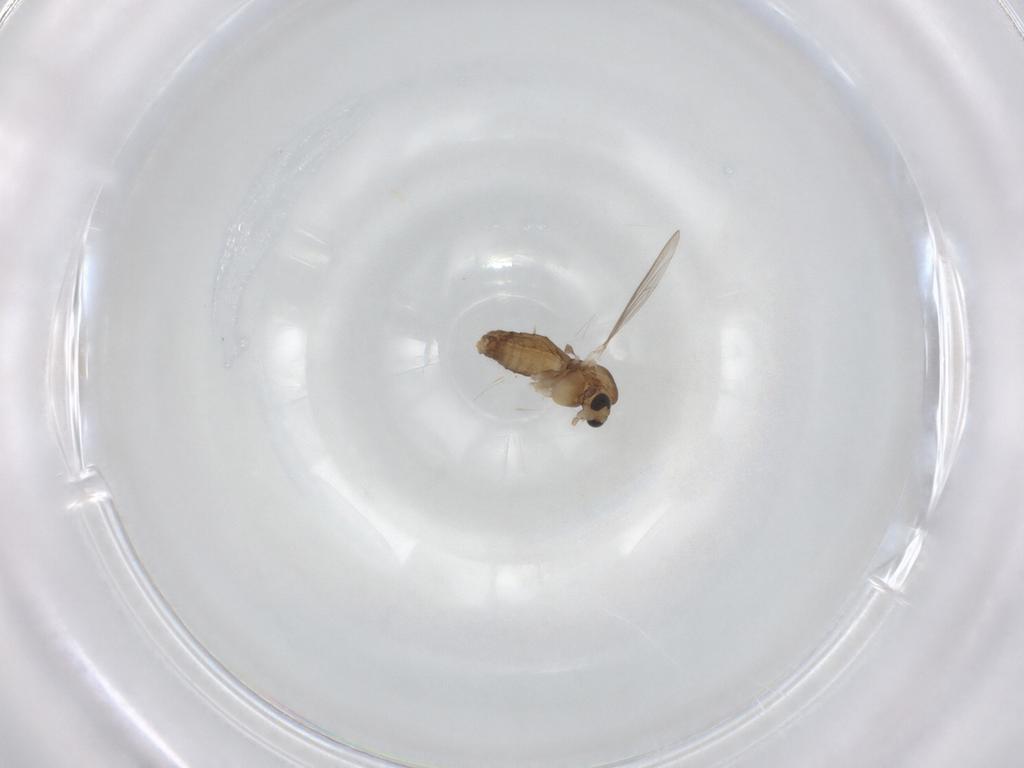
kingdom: Animalia
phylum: Arthropoda
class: Insecta
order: Diptera
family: Chironomidae
